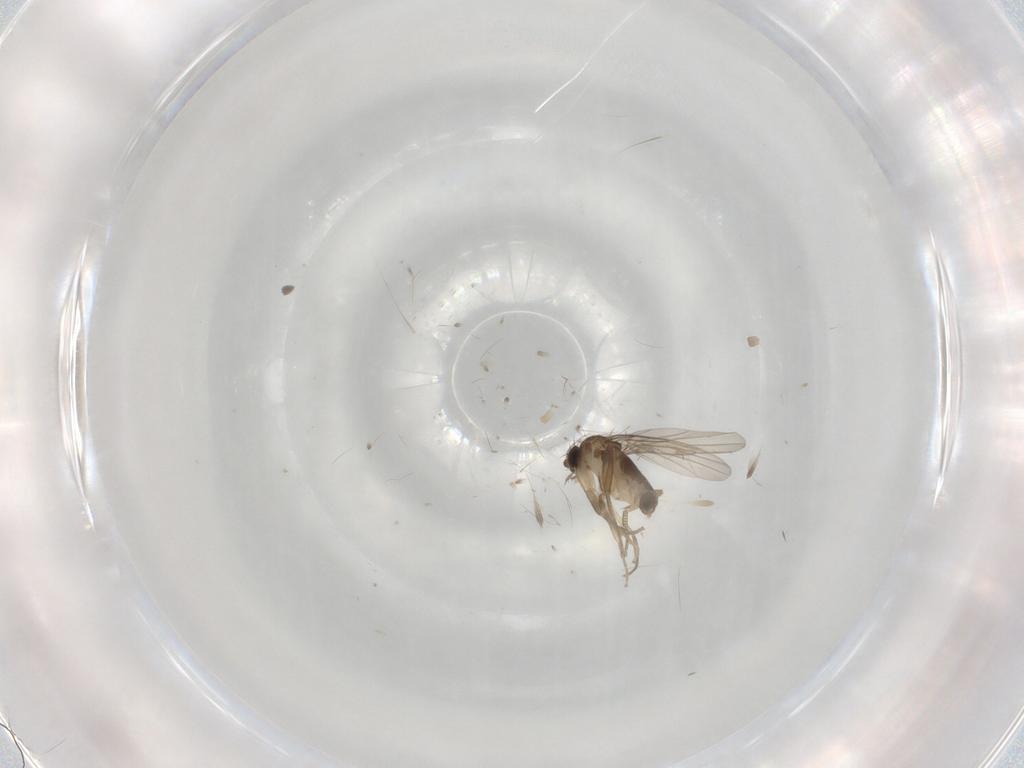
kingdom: Animalia
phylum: Arthropoda
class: Insecta
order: Diptera
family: Phoridae
